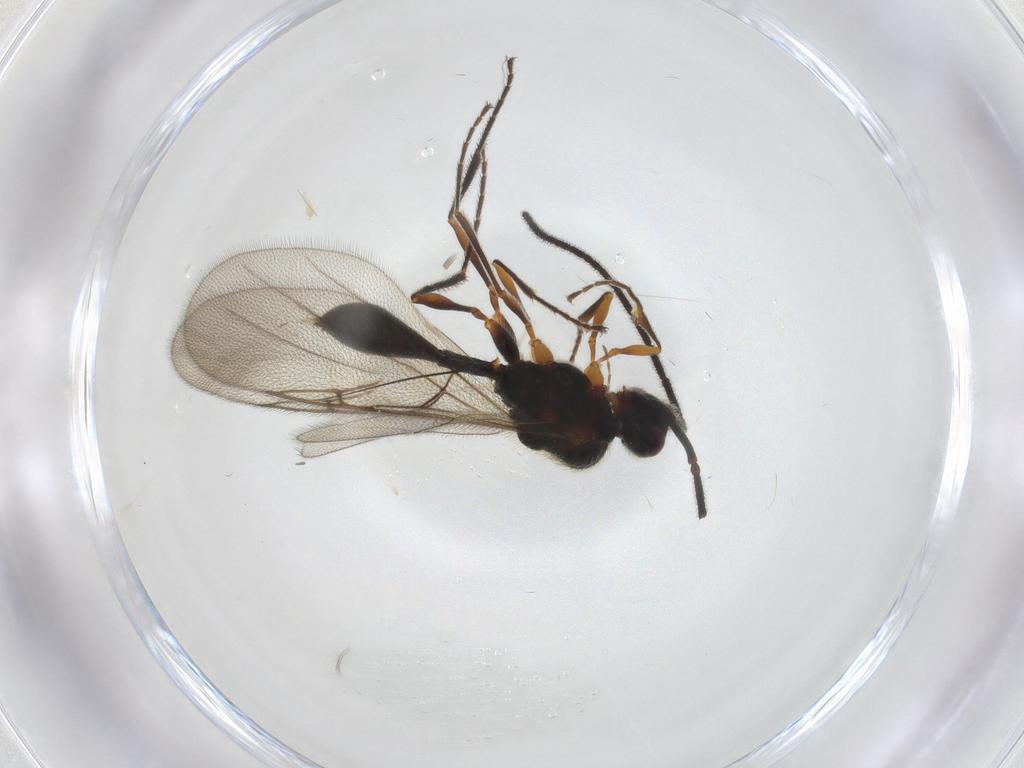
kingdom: Animalia
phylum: Arthropoda
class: Insecta
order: Hymenoptera
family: Diapriidae
